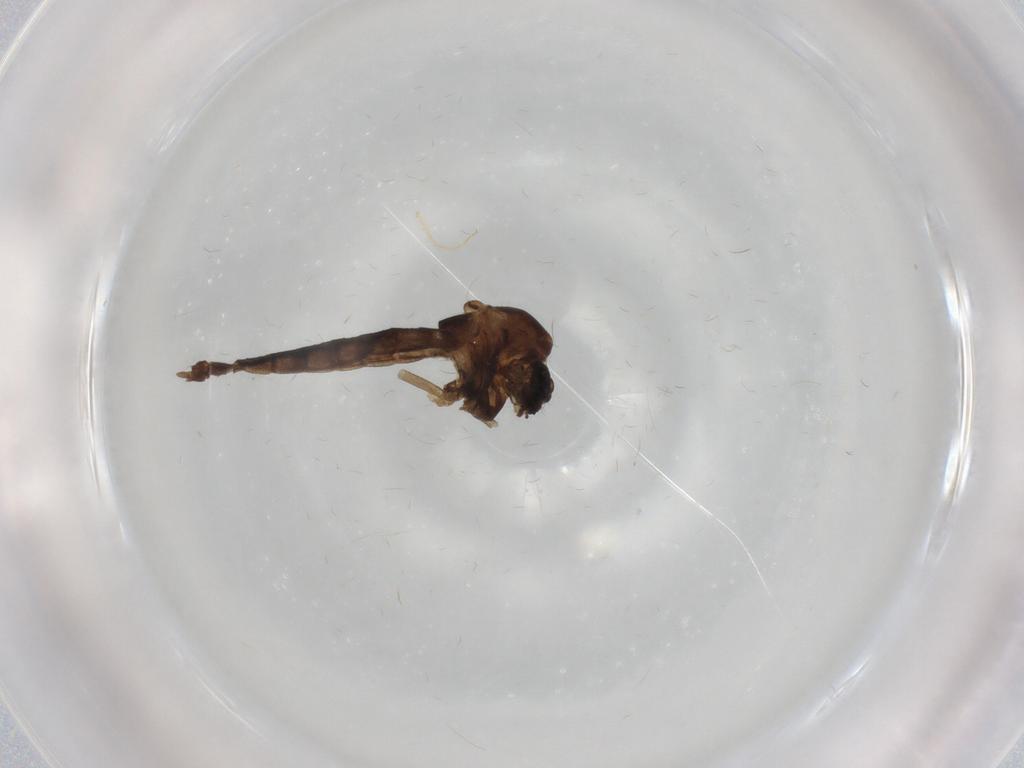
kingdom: Animalia
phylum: Arthropoda
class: Insecta
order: Diptera
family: Chironomidae
